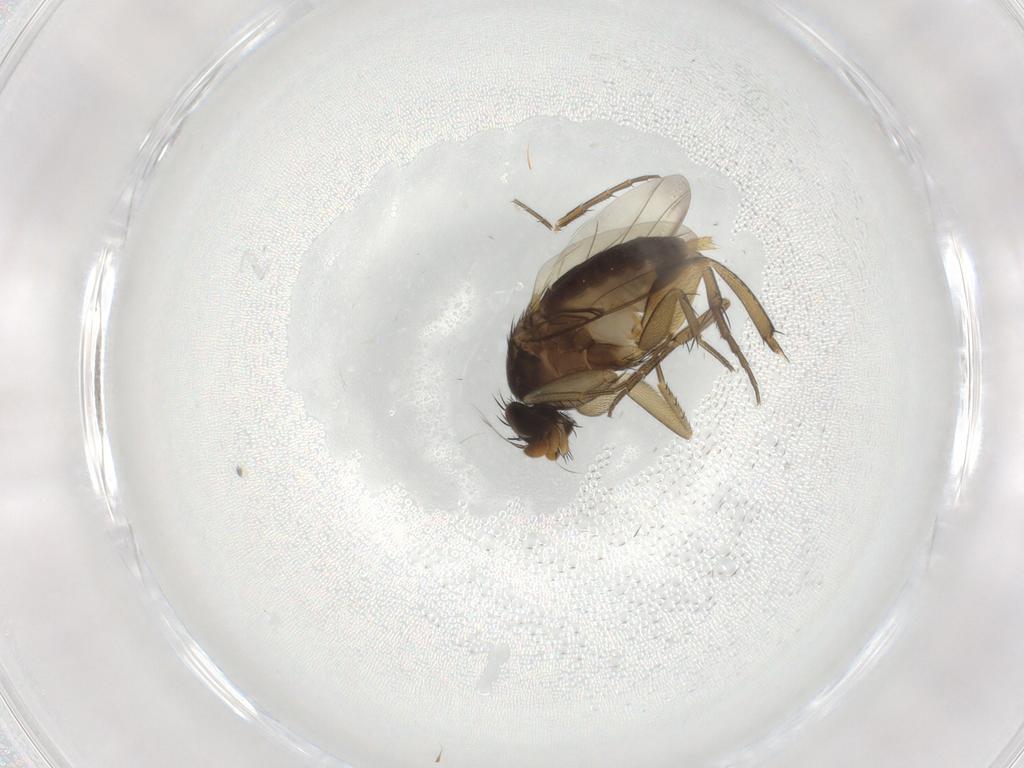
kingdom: Animalia
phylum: Arthropoda
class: Insecta
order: Diptera
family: Phoridae
